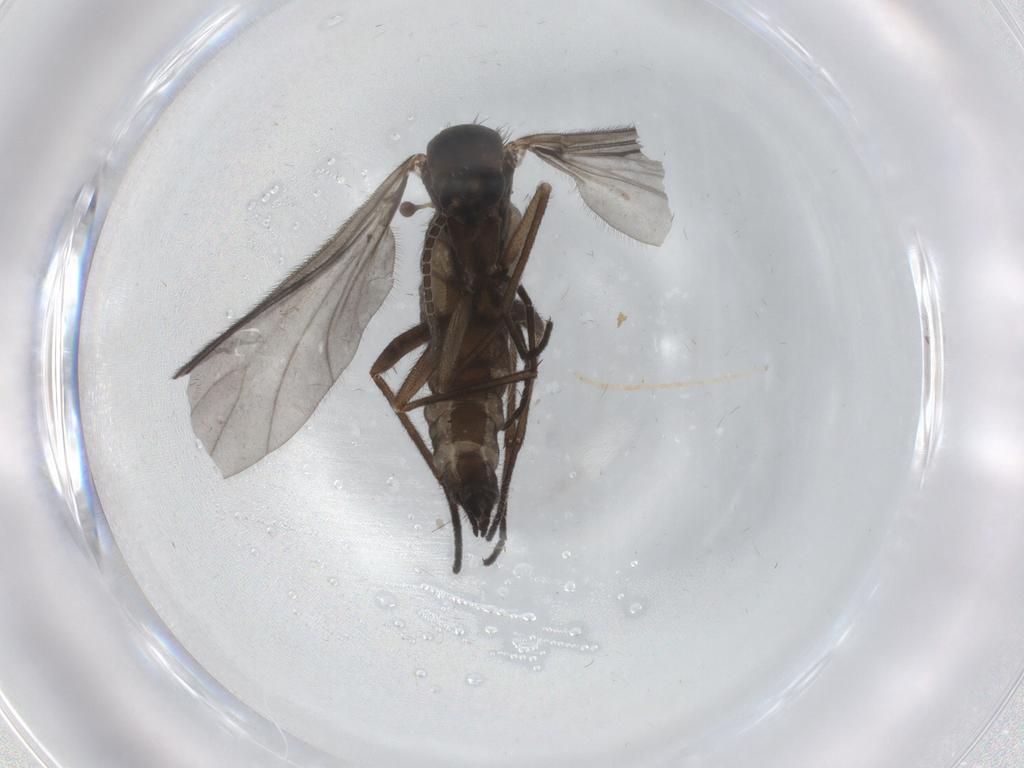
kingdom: Animalia
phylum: Arthropoda
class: Insecta
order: Diptera
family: Sciaridae
